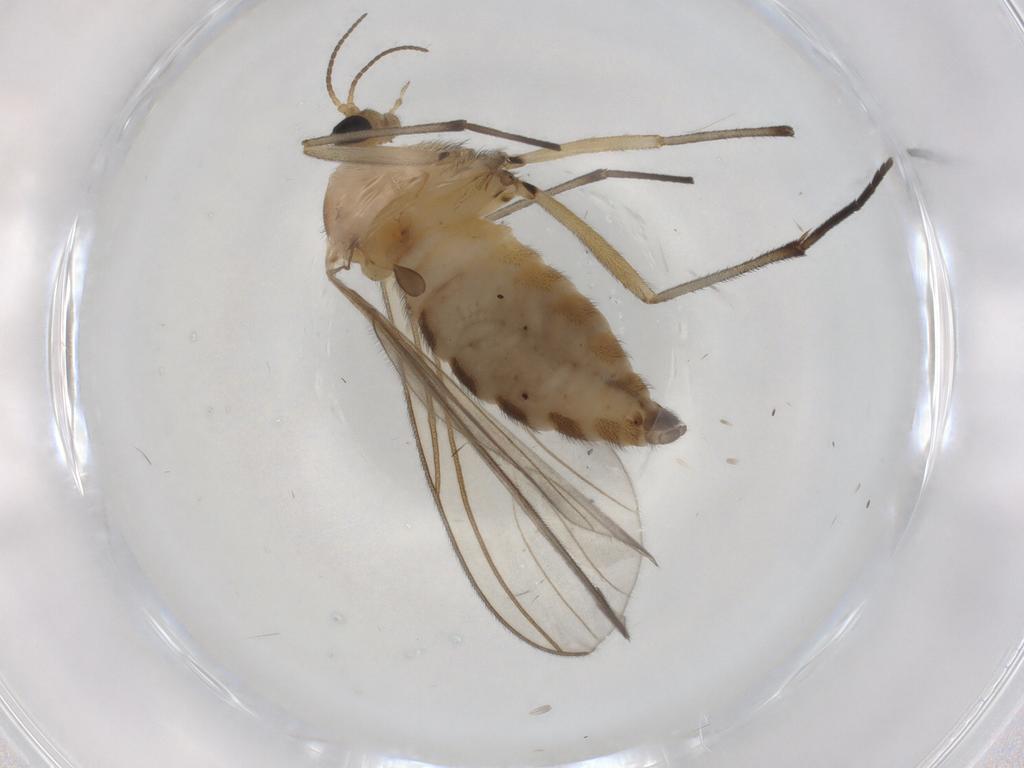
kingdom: Animalia
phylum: Arthropoda
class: Insecta
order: Diptera
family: Sciaridae
